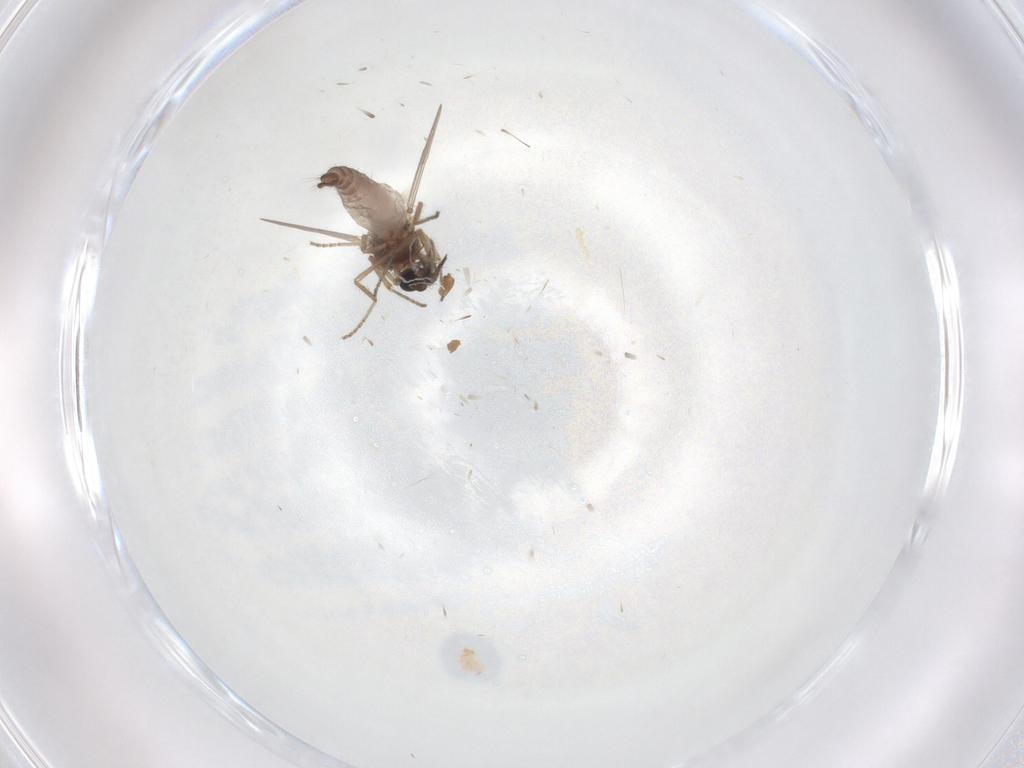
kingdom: Animalia
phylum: Arthropoda
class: Insecta
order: Diptera
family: Ceratopogonidae
